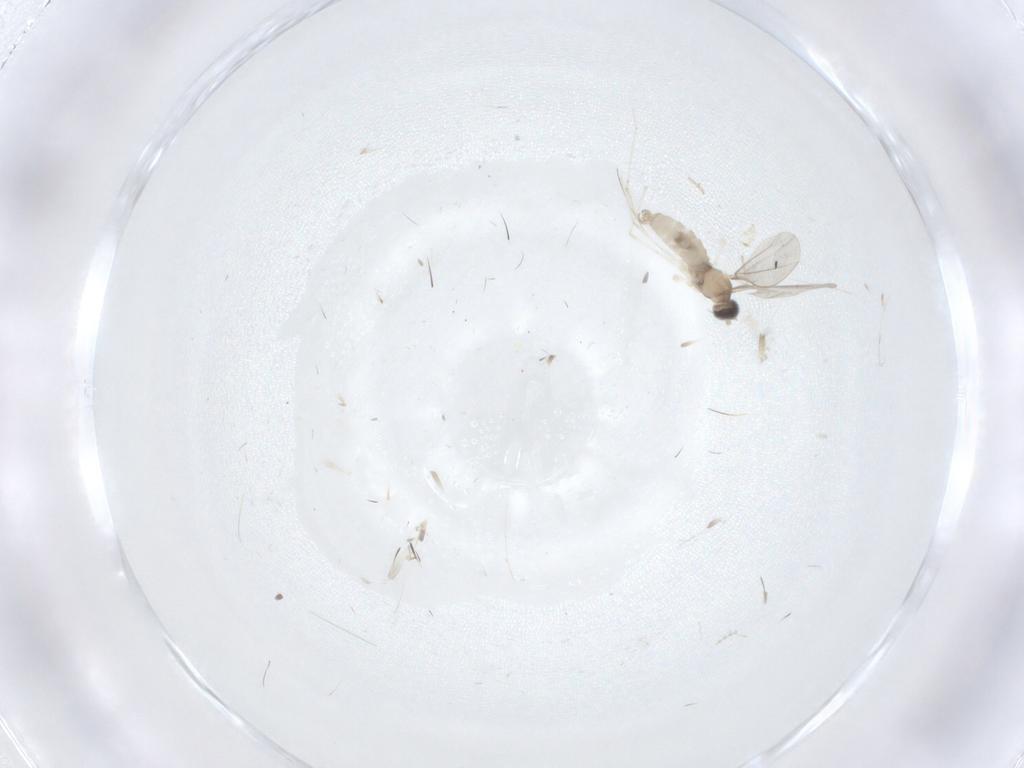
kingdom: Animalia
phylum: Arthropoda
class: Insecta
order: Diptera
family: Cecidomyiidae
